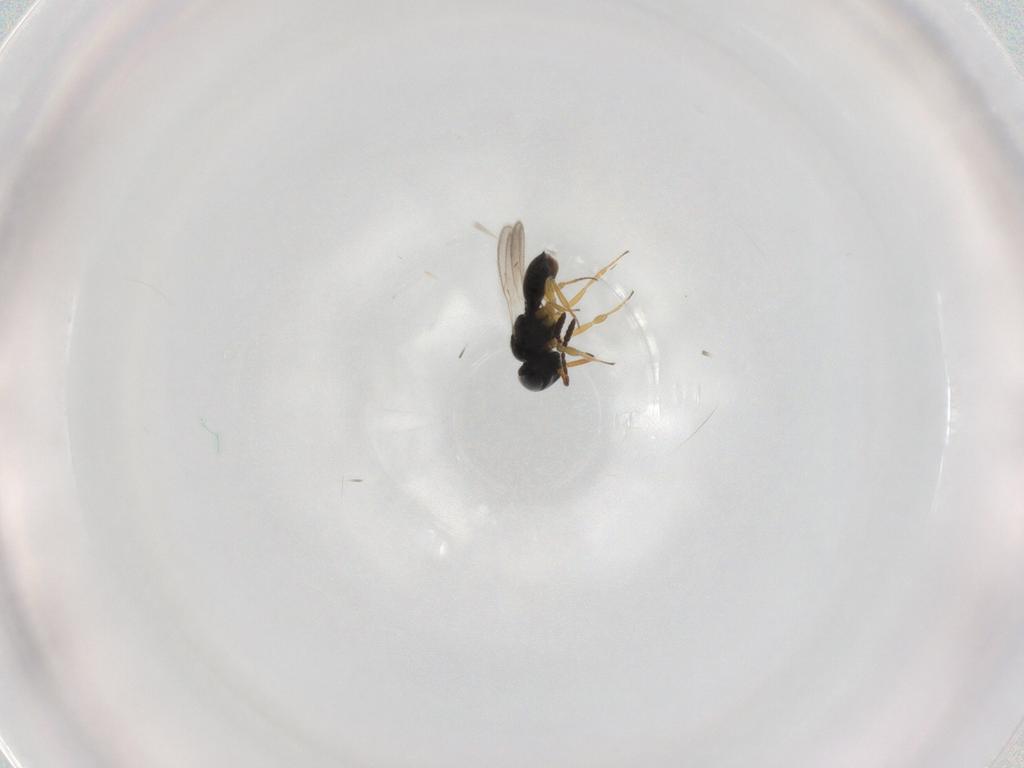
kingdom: Animalia
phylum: Arthropoda
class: Insecta
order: Hymenoptera
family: Scelionidae
